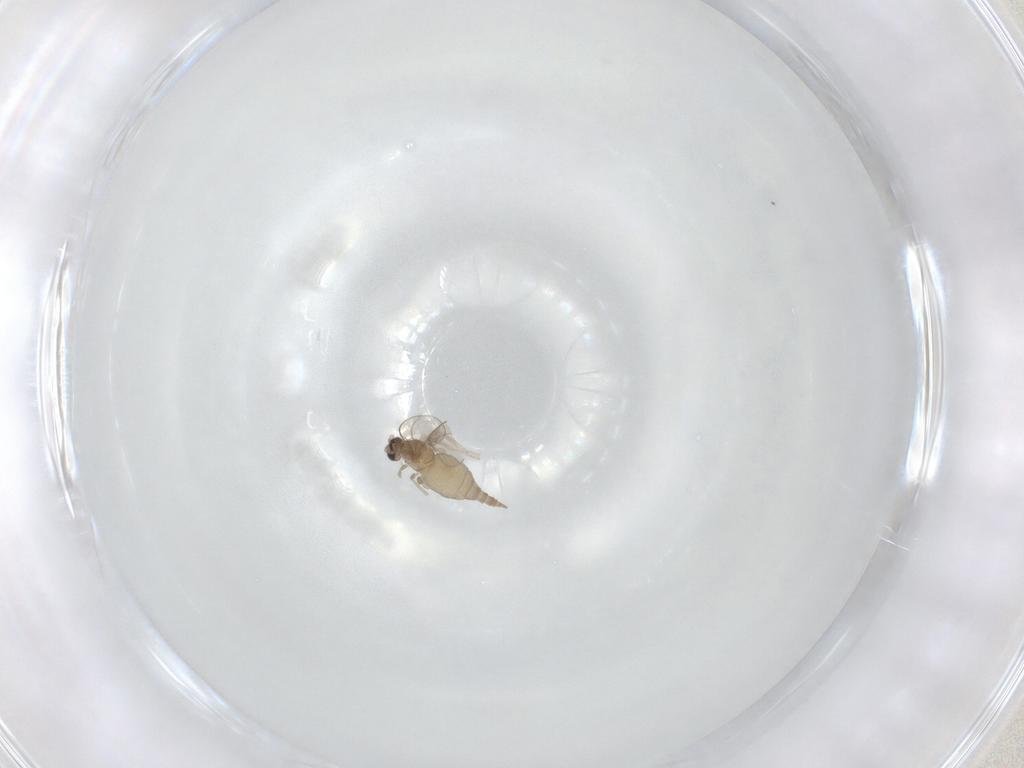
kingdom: Animalia
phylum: Arthropoda
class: Insecta
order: Diptera
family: Cecidomyiidae
